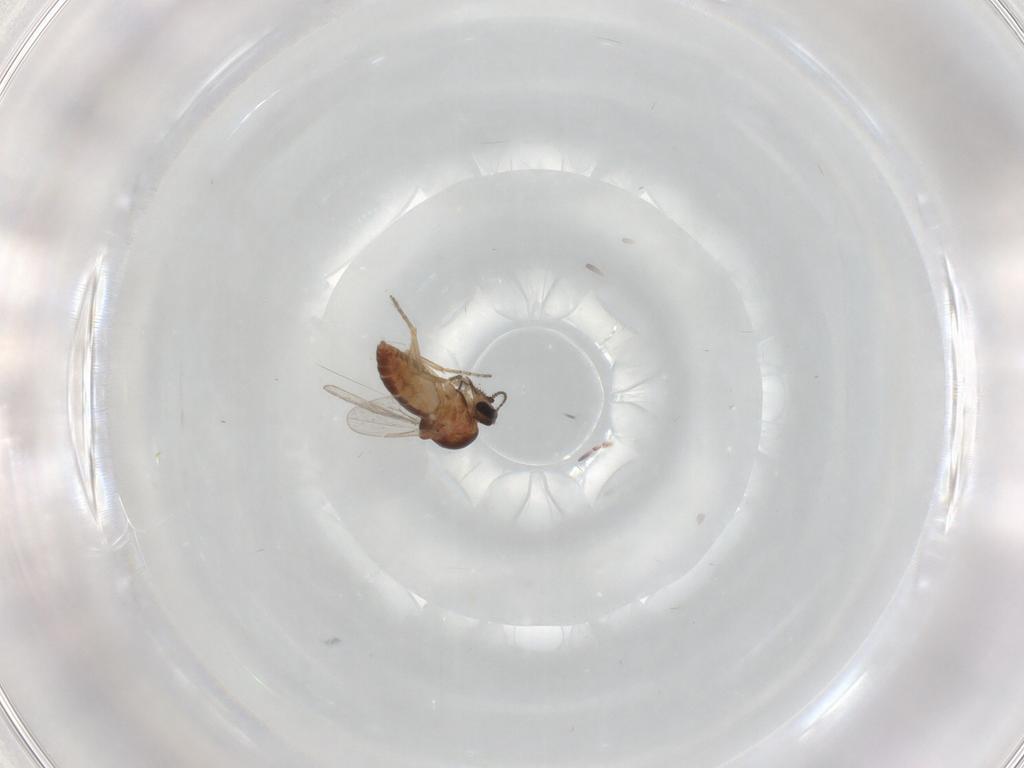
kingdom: Animalia
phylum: Arthropoda
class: Insecta
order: Diptera
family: Ceratopogonidae
